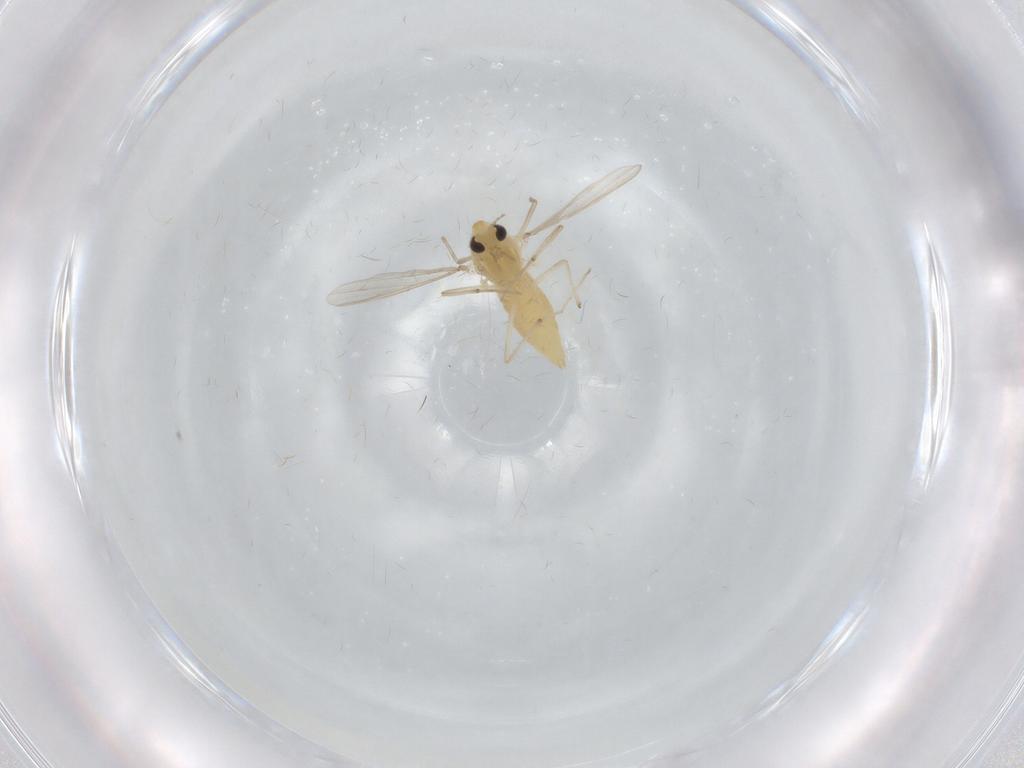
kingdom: Animalia
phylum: Arthropoda
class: Insecta
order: Diptera
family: Chironomidae
